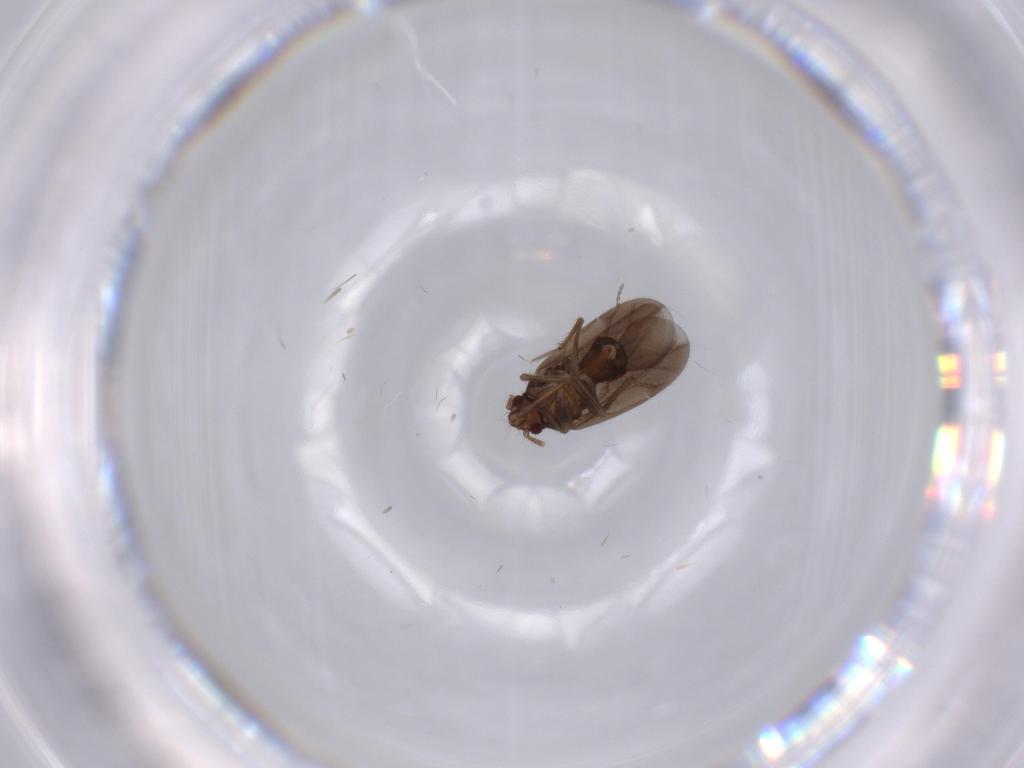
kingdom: Animalia
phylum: Arthropoda
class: Insecta
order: Hemiptera
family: Ceratocombidae
